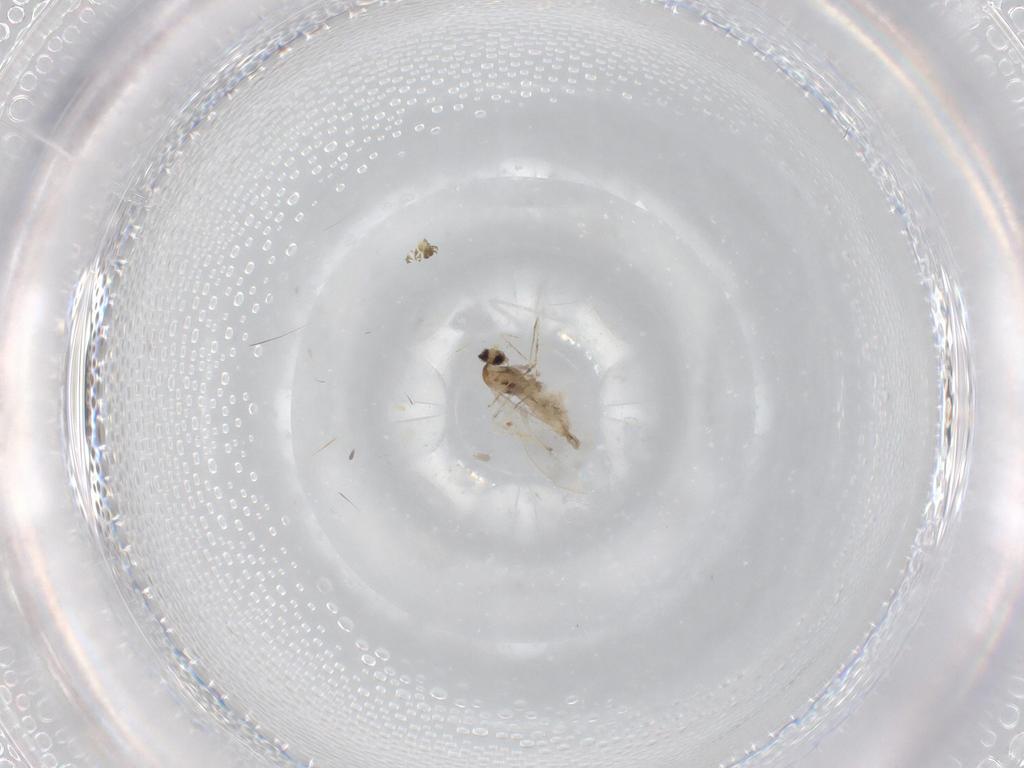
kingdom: Animalia
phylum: Arthropoda
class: Insecta
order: Diptera
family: Cecidomyiidae
